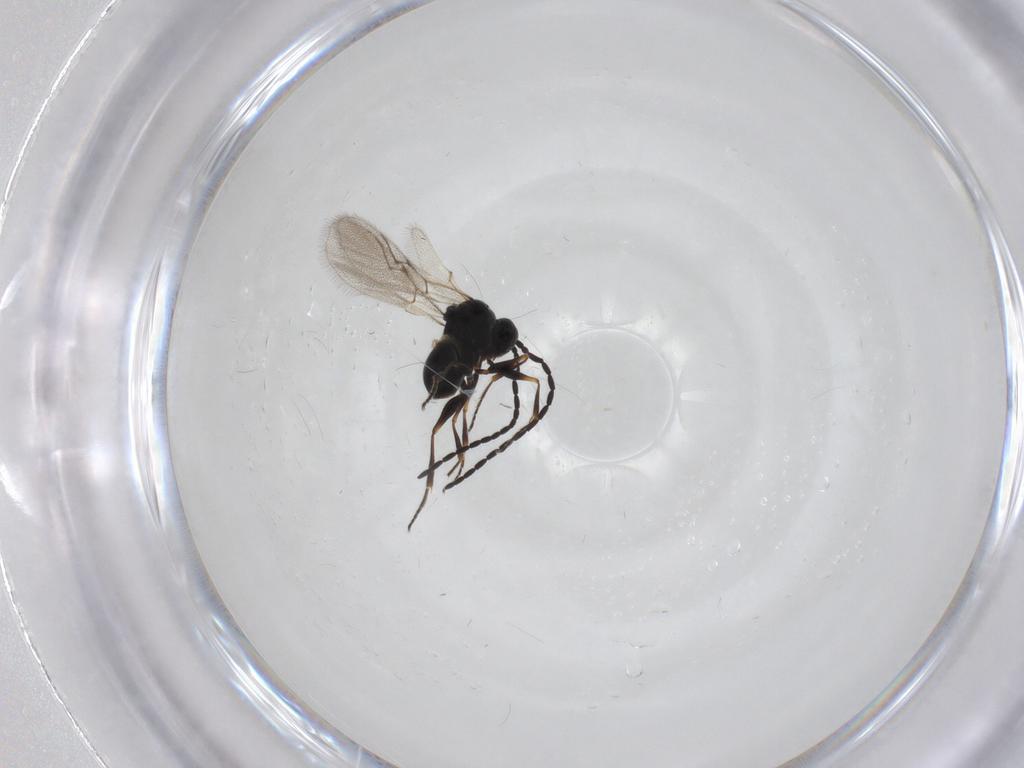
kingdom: Animalia
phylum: Arthropoda
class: Insecta
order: Hymenoptera
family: Figitidae
